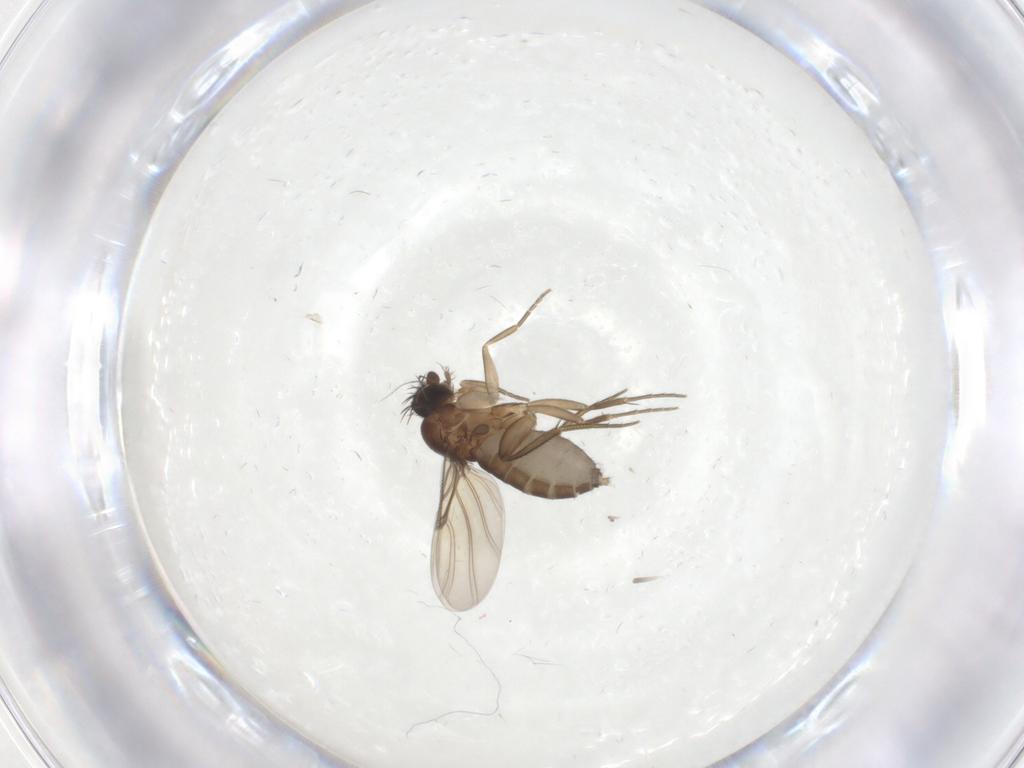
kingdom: Animalia
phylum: Arthropoda
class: Insecta
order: Diptera
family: Phoridae
